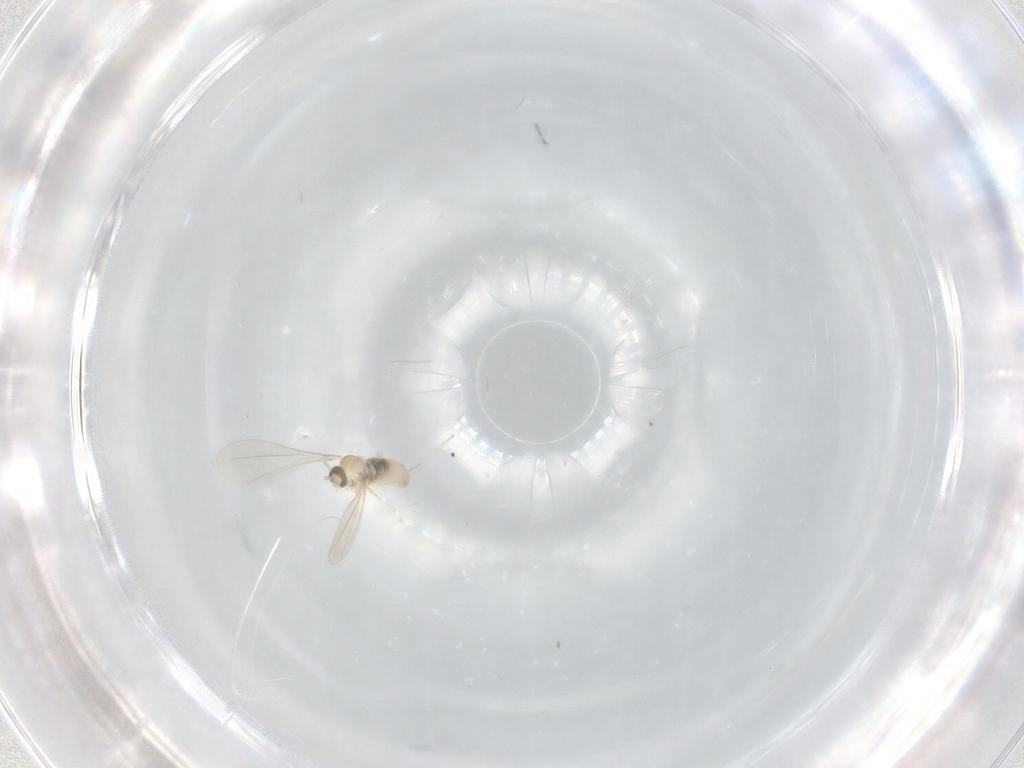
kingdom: Animalia
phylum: Arthropoda
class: Insecta
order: Diptera
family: Cecidomyiidae
